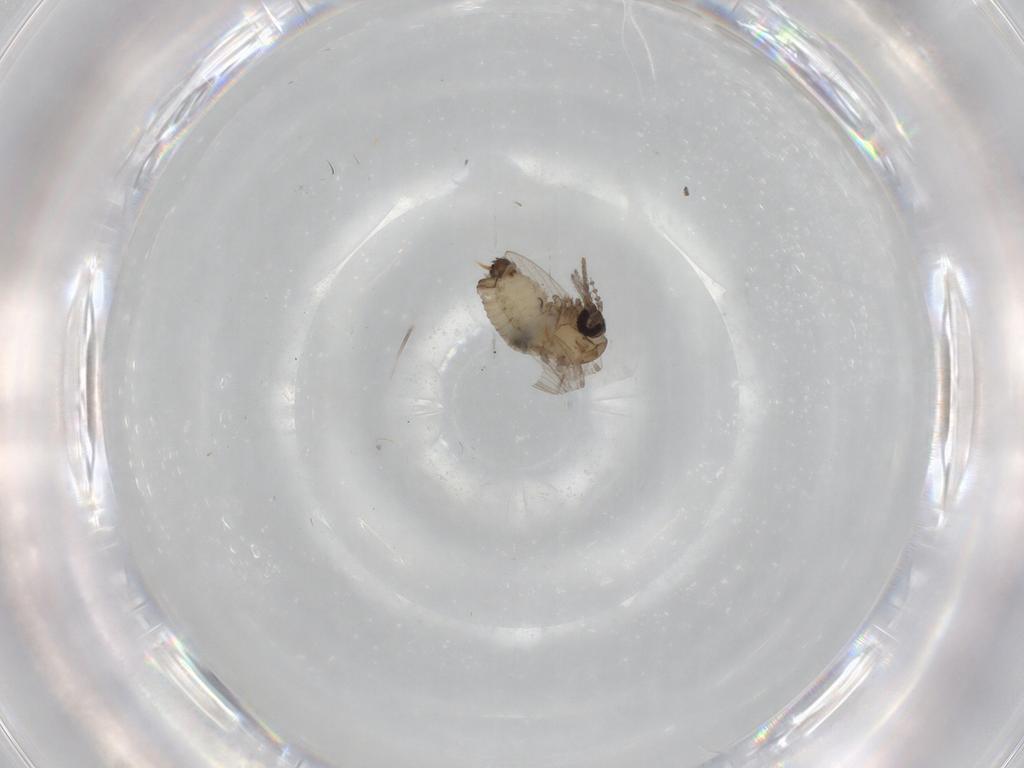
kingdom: Animalia
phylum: Arthropoda
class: Insecta
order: Diptera
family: Psychodidae
